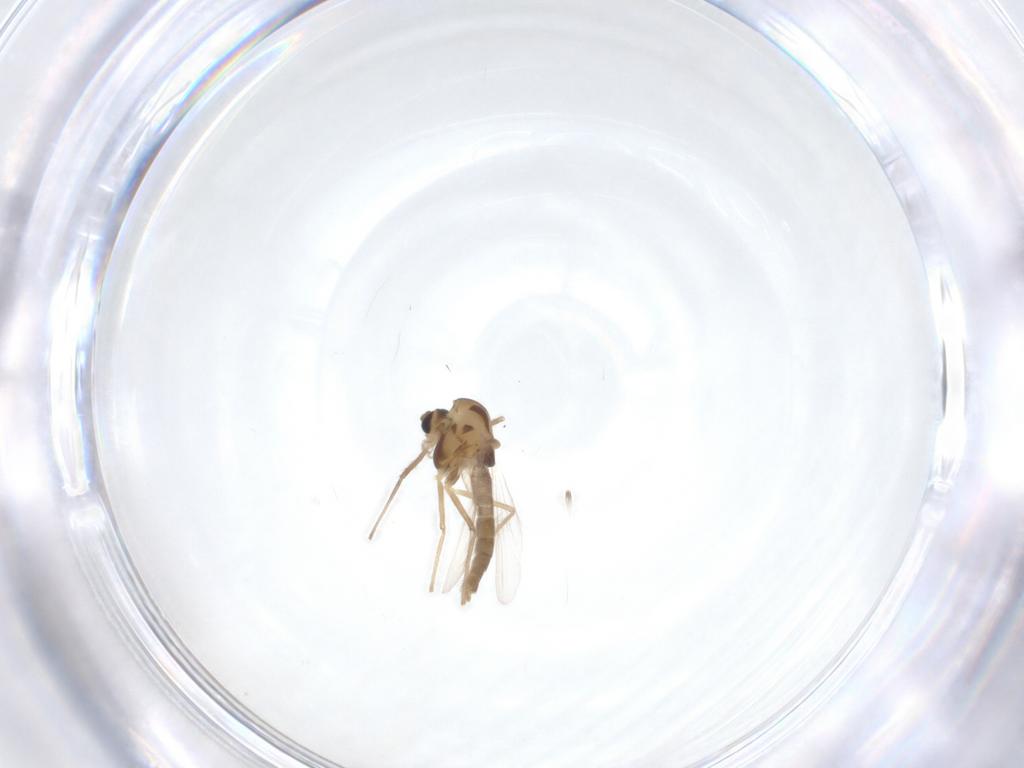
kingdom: Animalia
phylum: Arthropoda
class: Insecta
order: Diptera
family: Chironomidae
